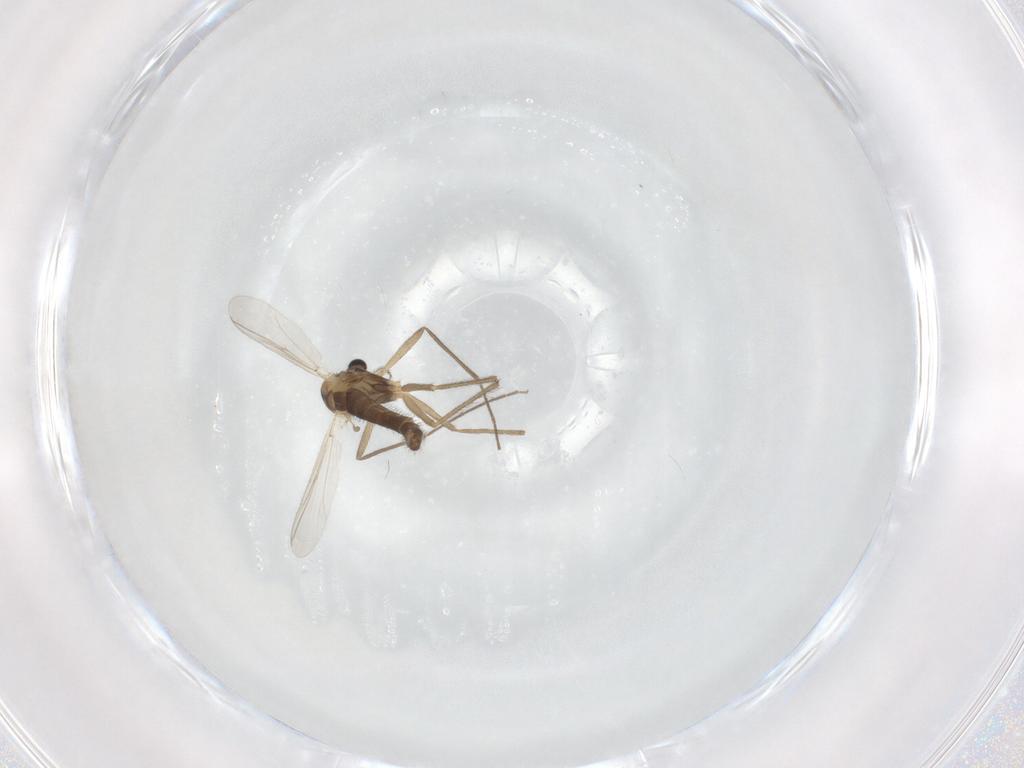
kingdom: Animalia
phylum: Arthropoda
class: Insecta
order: Diptera
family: Chironomidae
